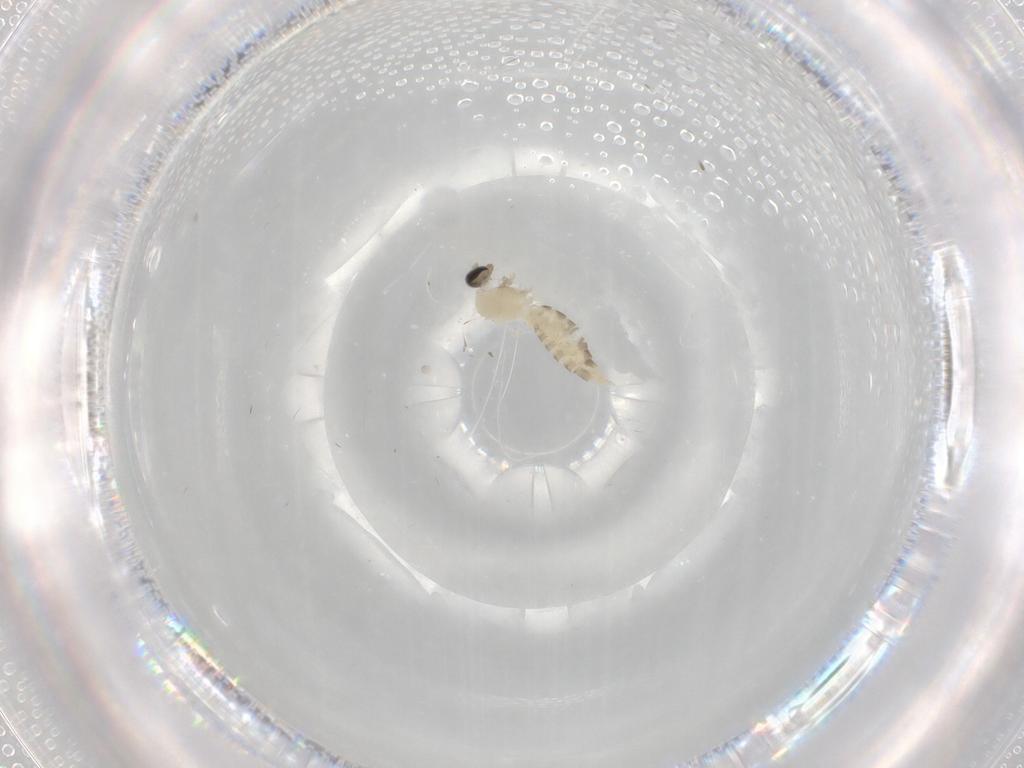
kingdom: Animalia
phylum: Arthropoda
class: Insecta
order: Diptera
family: Cecidomyiidae
